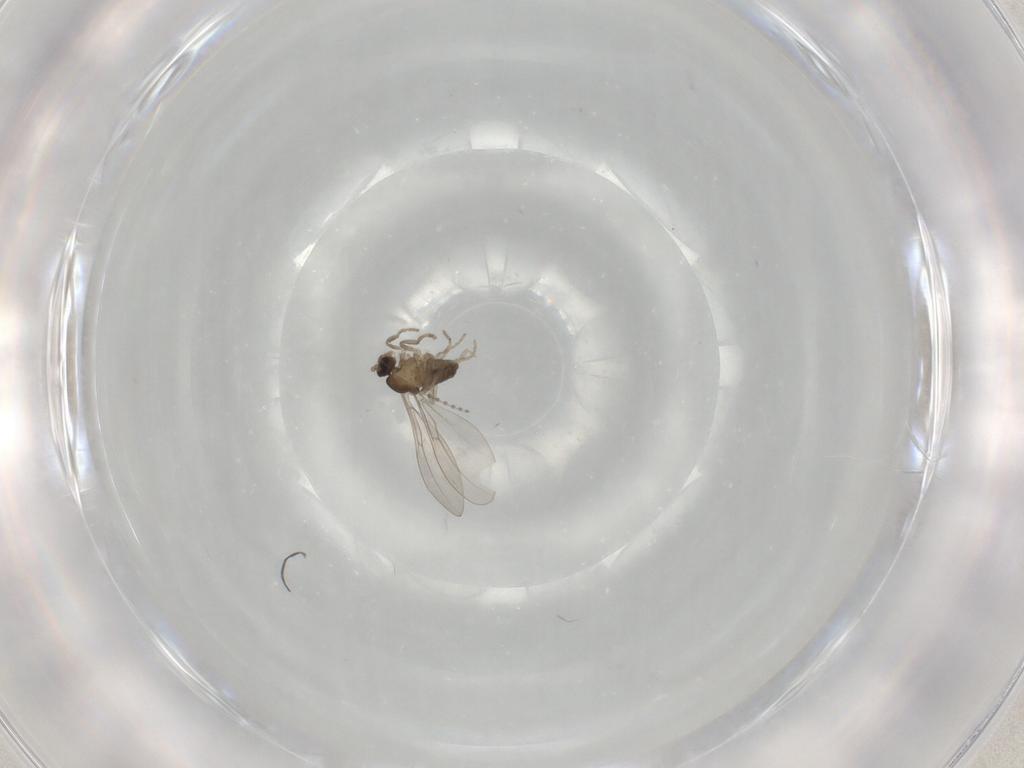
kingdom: Animalia
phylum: Arthropoda
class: Insecta
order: Diptera
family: Cecidomyiidae
